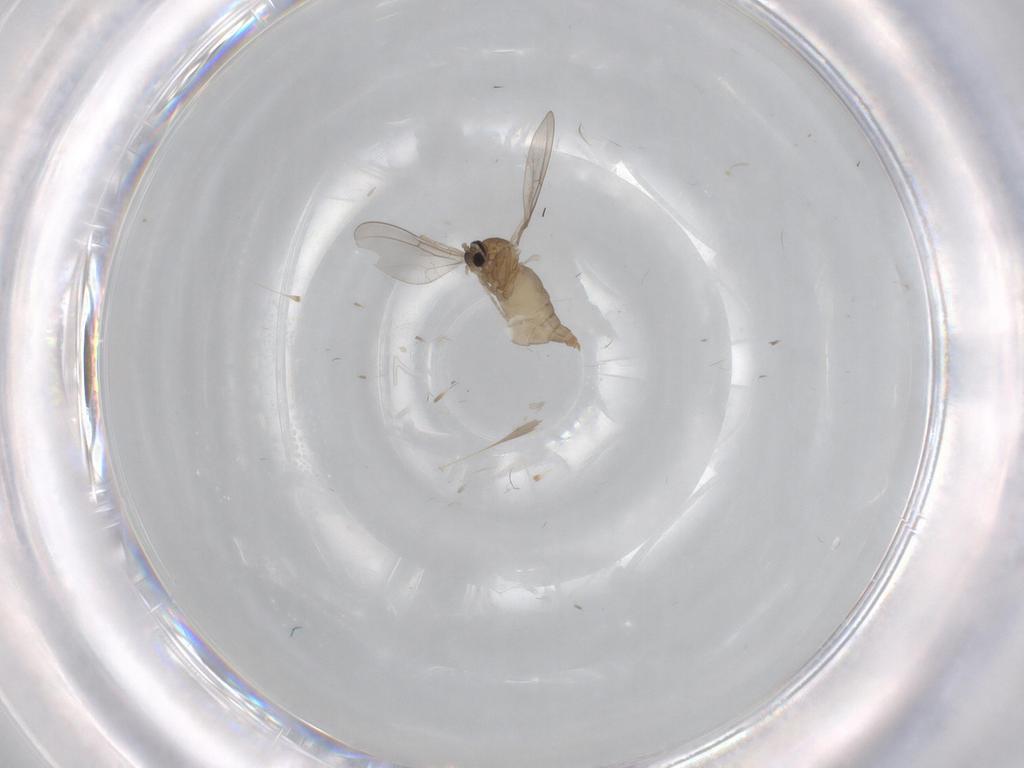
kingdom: Animalia
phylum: Arthropoda
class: Insecta
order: Diptera
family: Cecidomyiidae
